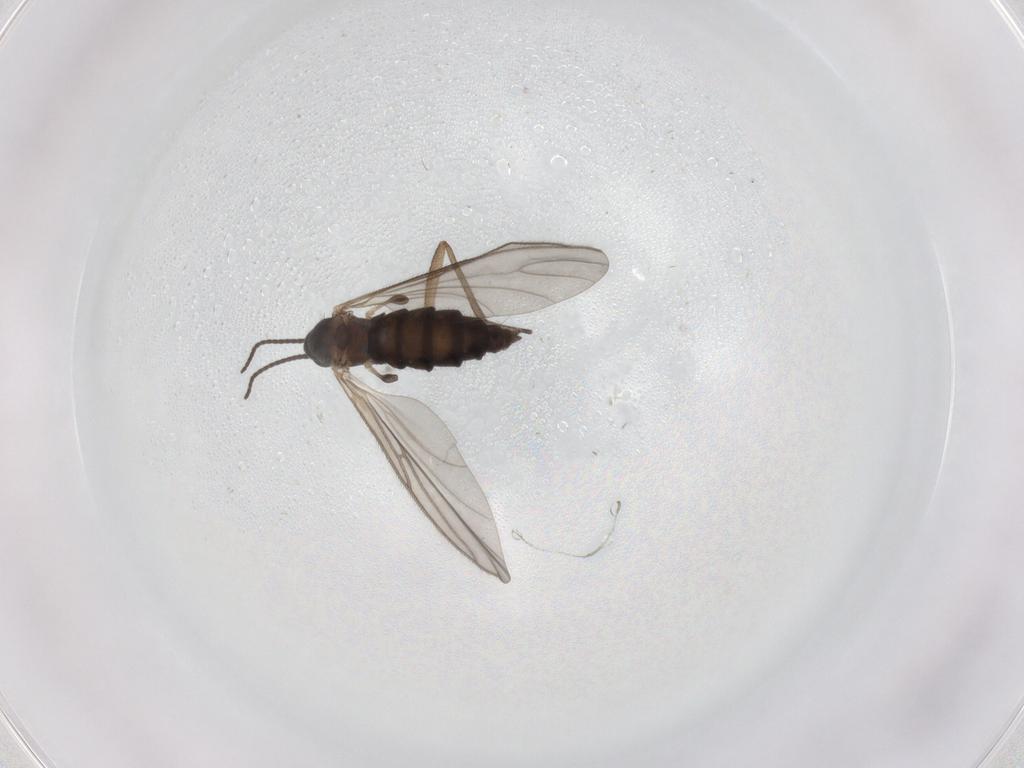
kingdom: Animalia
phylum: Arthropoda
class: Insecta
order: Diptera
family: Sciaridae
